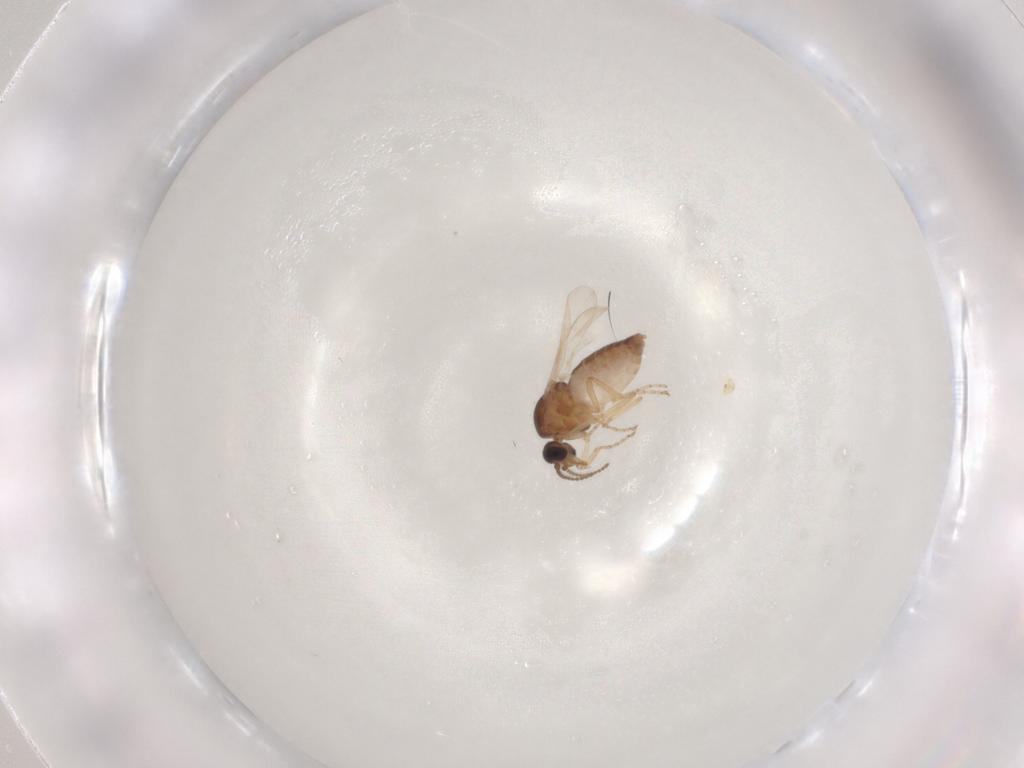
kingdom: Animalia
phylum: Arthropoda
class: Insecta
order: Diptera
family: Ceratopogonidae
